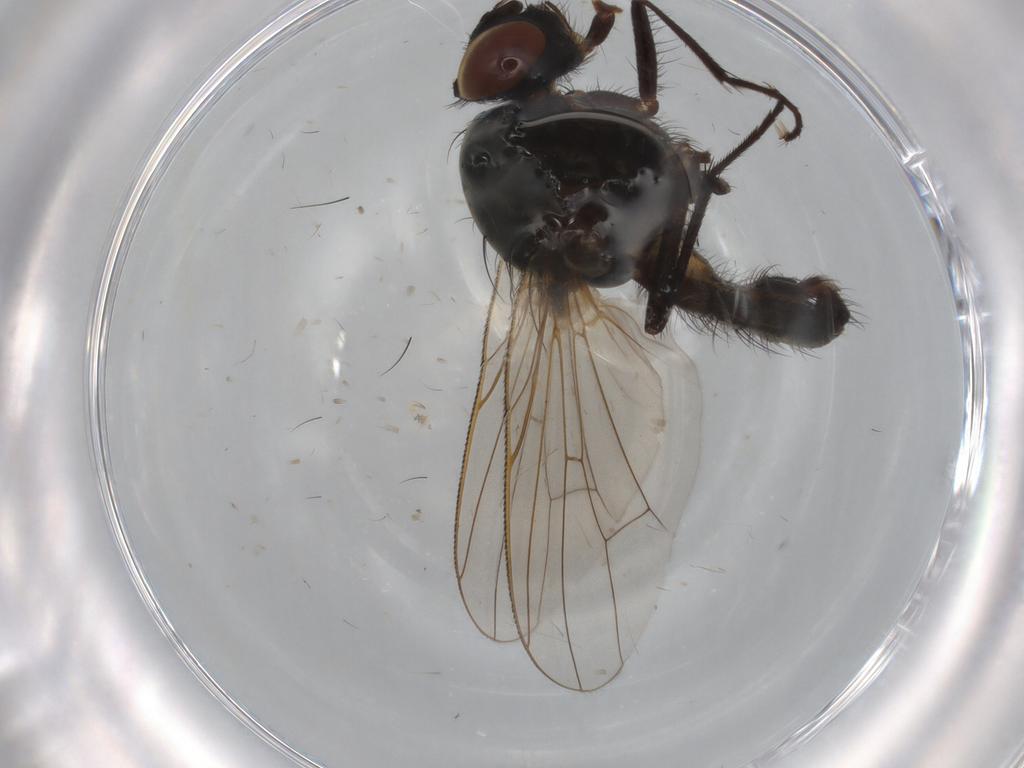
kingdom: Animalia
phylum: Arthropoda
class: Insecta
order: Diptera
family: Anthomyiidae
